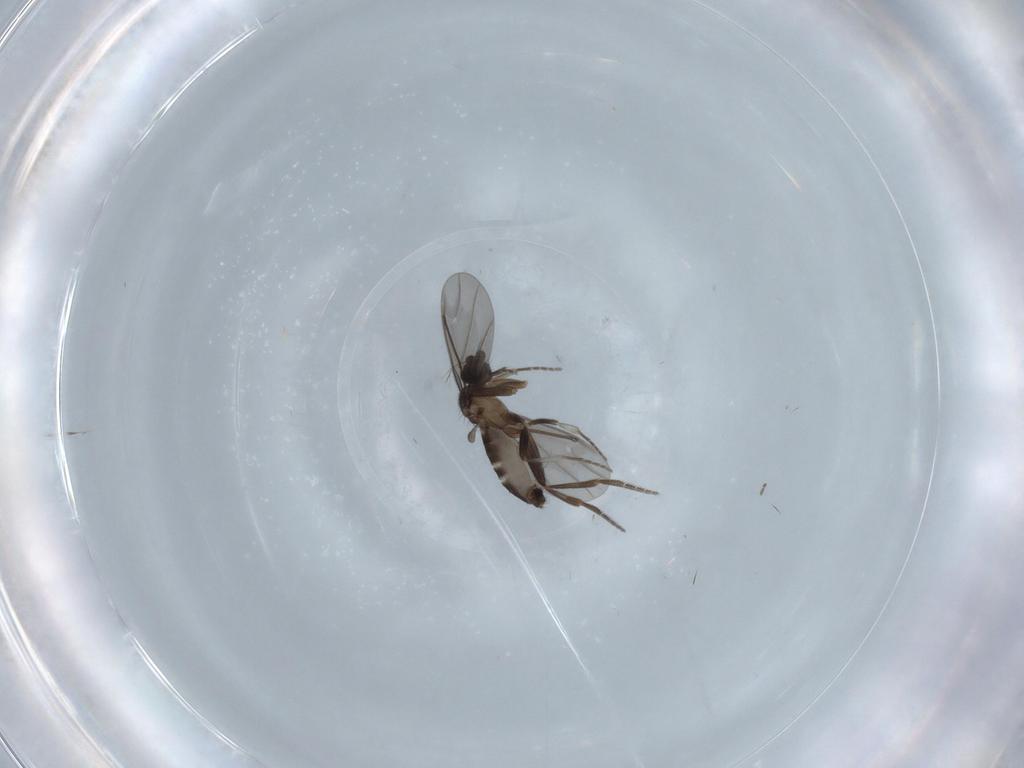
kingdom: Animalia
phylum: Arthropoda
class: Insecta
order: Diptera
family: Phoridae
